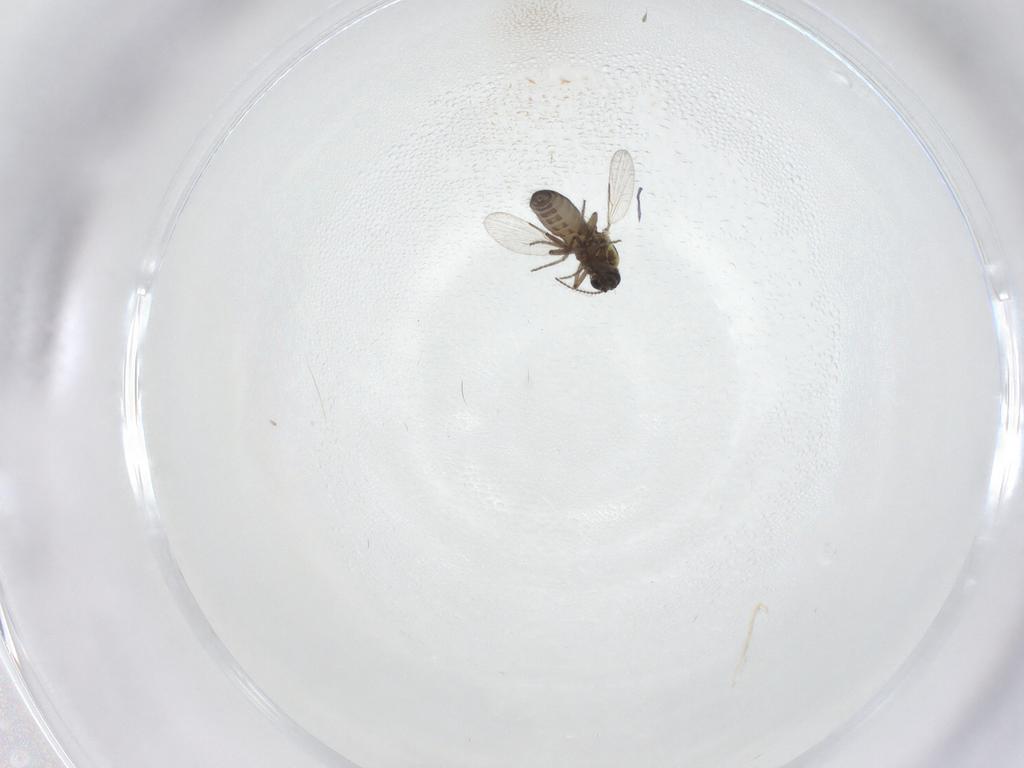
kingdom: Animalia
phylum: Arthropoda
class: Insecta
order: Diptera
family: Ceratopogonidae
